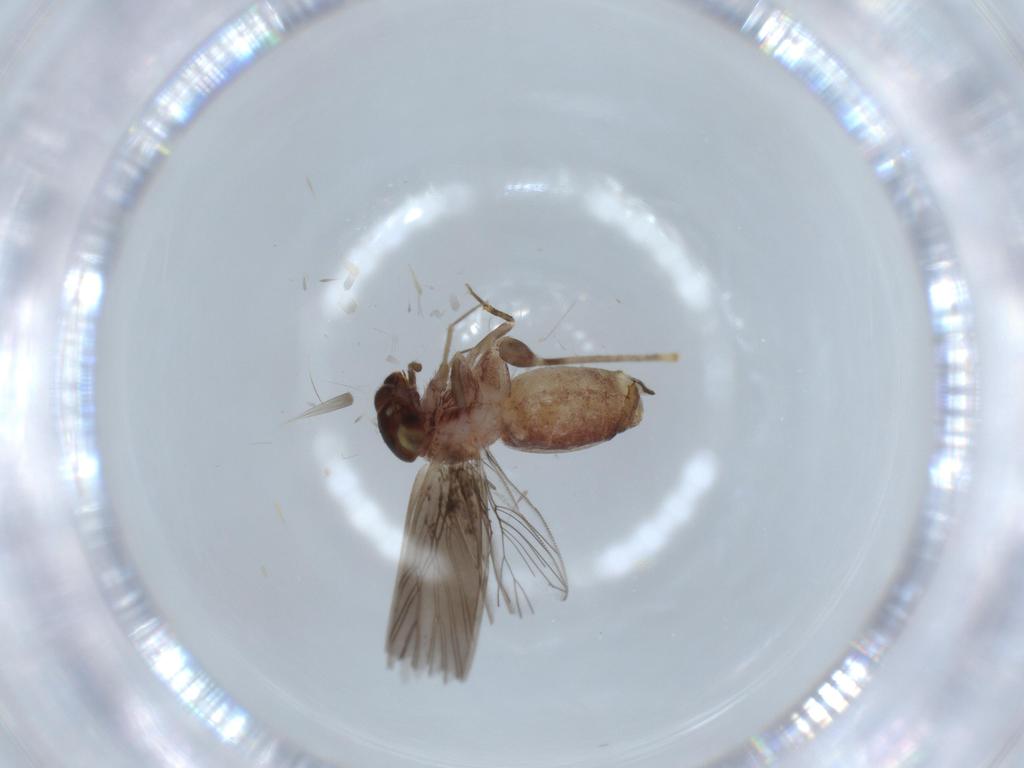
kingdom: Animalia
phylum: Arthropoda
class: Insecta
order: Psocodea
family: Lepidopsocidae
